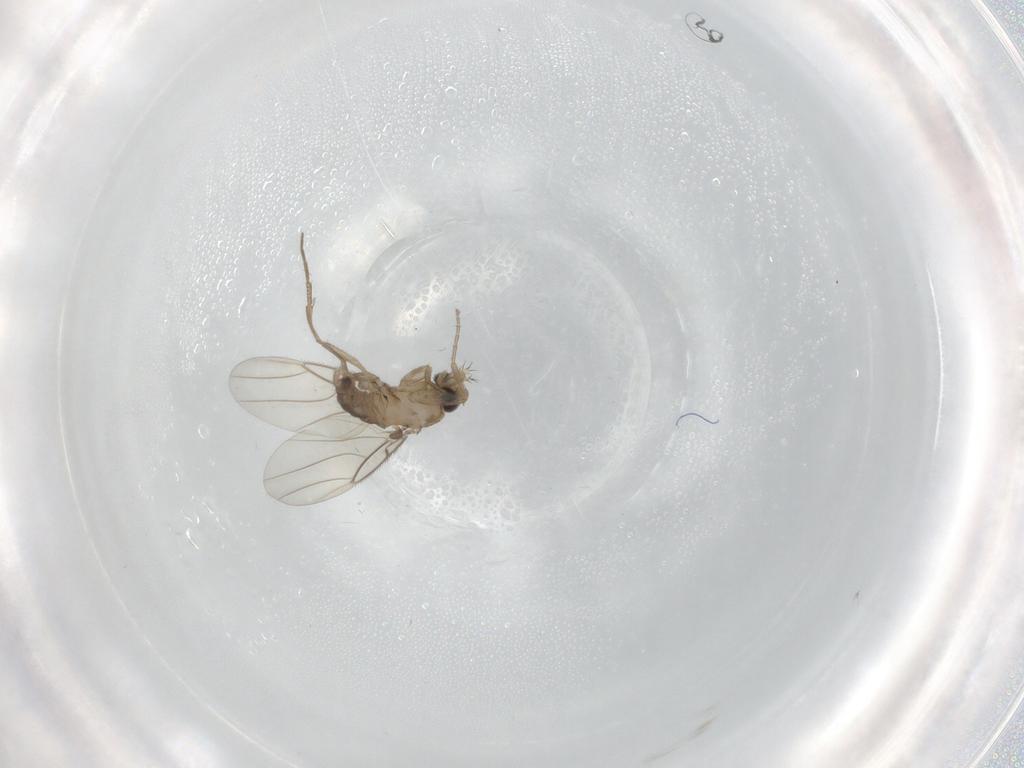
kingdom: Animalia
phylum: Arthropoda
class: Insecta
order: Diptera
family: Phoridae
